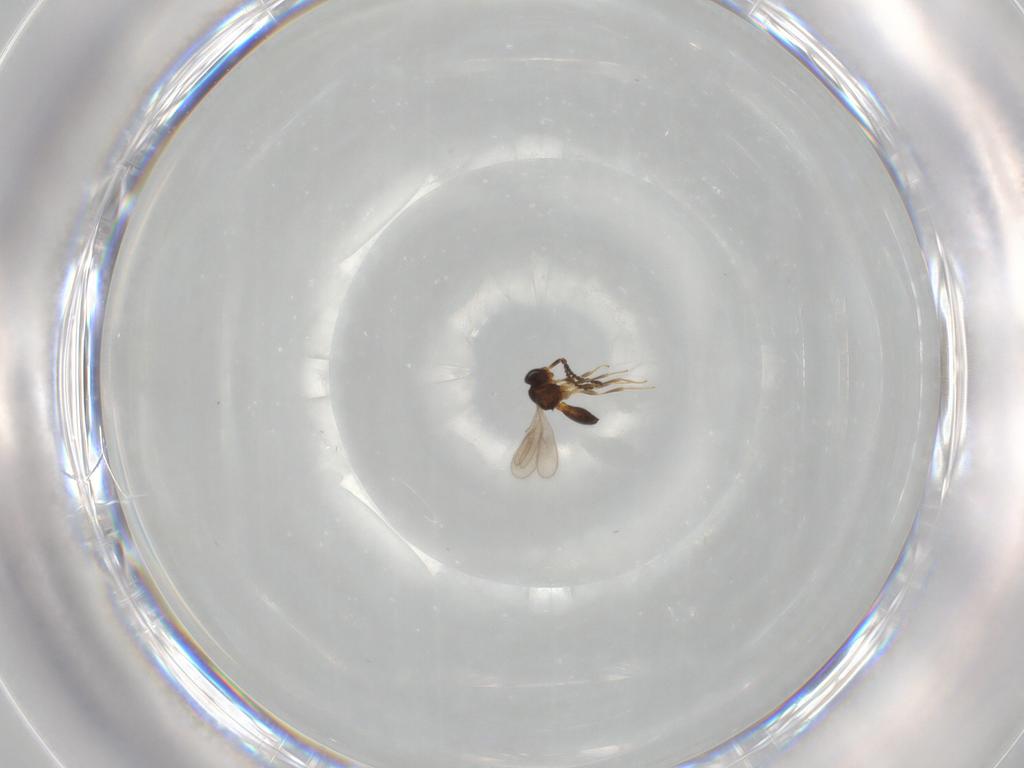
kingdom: Animalia
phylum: Arthropoda
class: Insecta
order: Hymenoptera
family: Scelionidae
